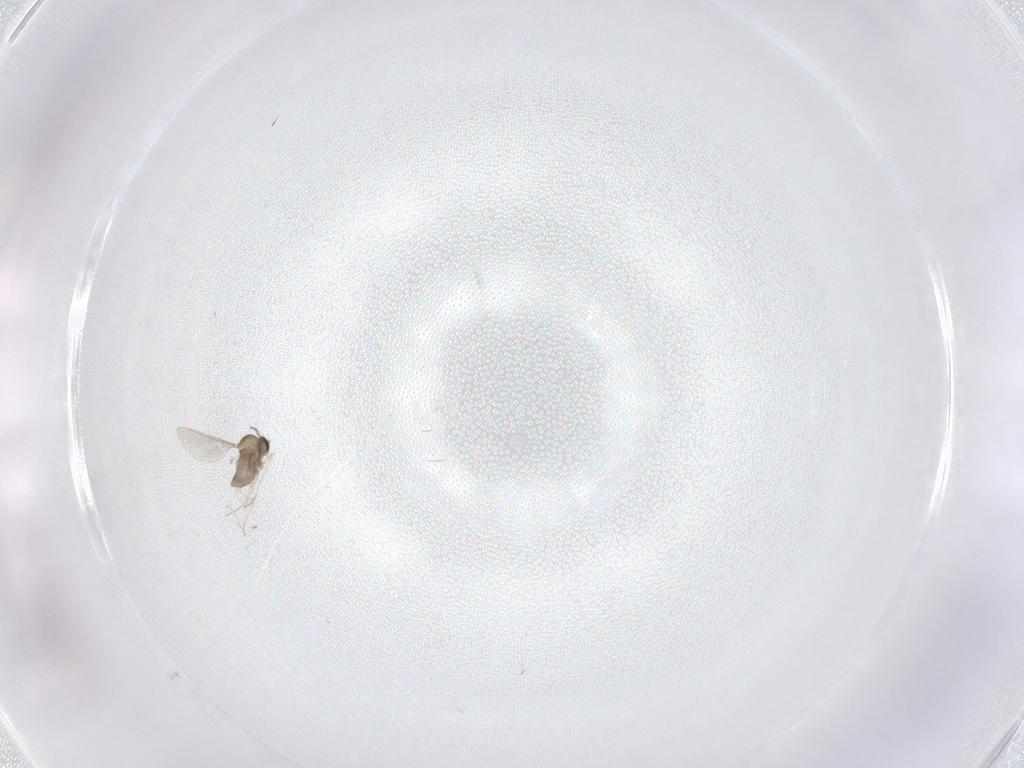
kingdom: Animalia
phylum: Arthropoda
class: Insecta
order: Diptera
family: Cecidomyiidae
